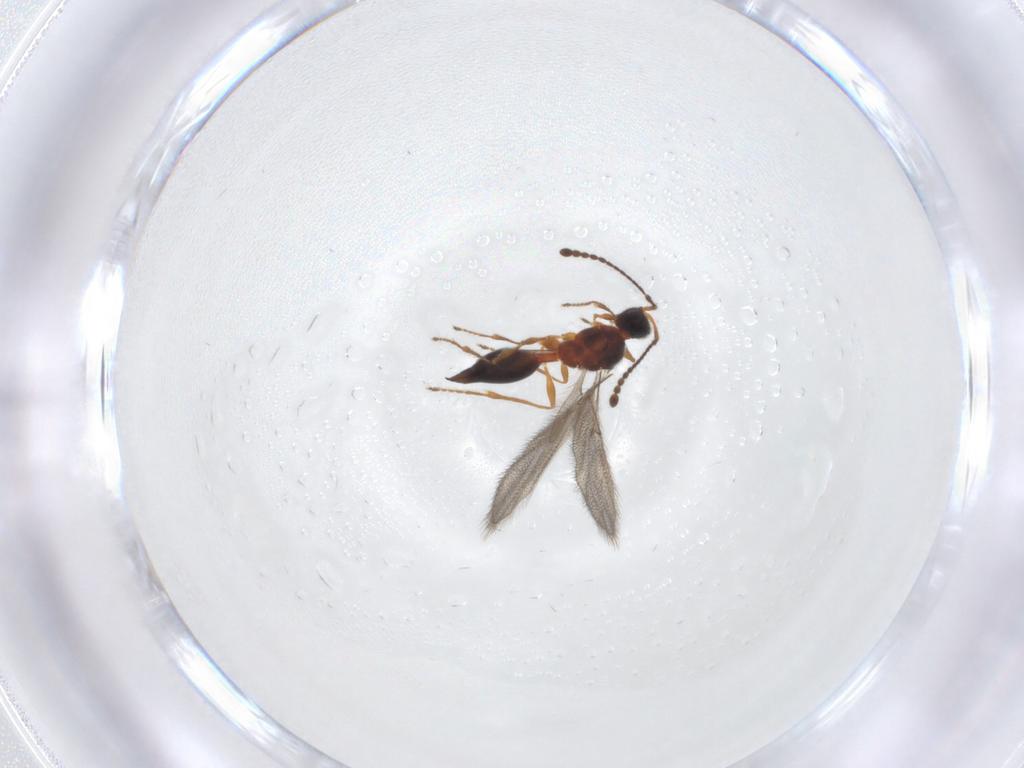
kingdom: Animalia
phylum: Arthropoda
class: Insecta
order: Hymenoptera
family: Diapriidae
